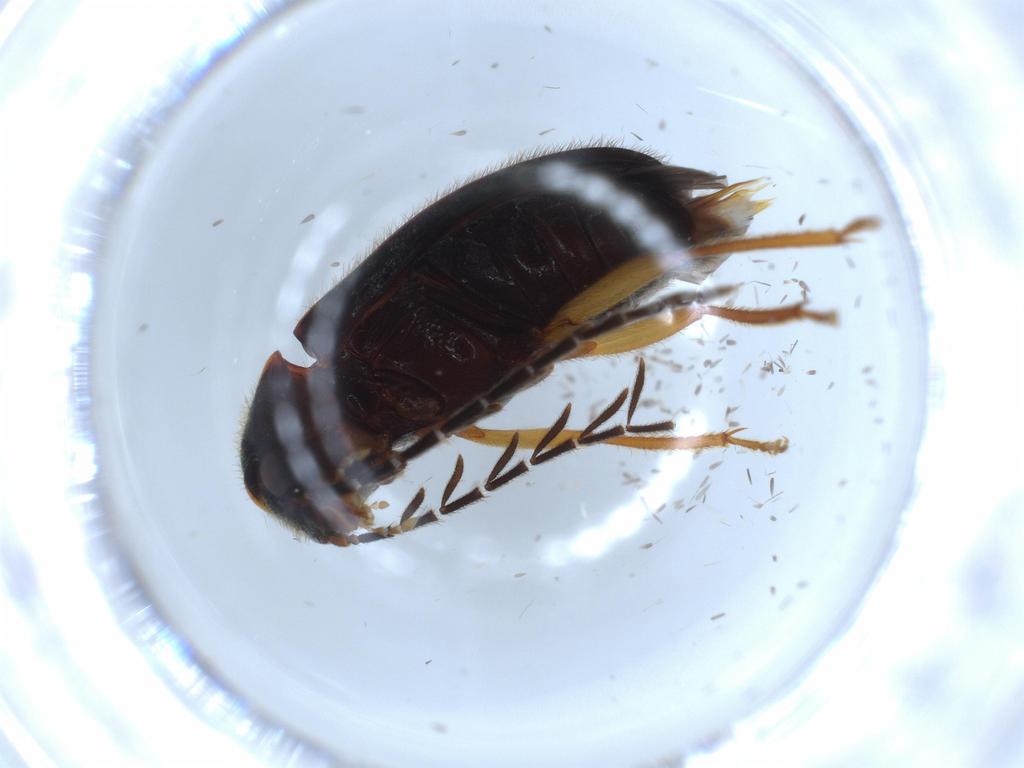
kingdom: Animalia
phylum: Arthropoda
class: Insecta
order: Coleoptera
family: Ptilodactylidae
